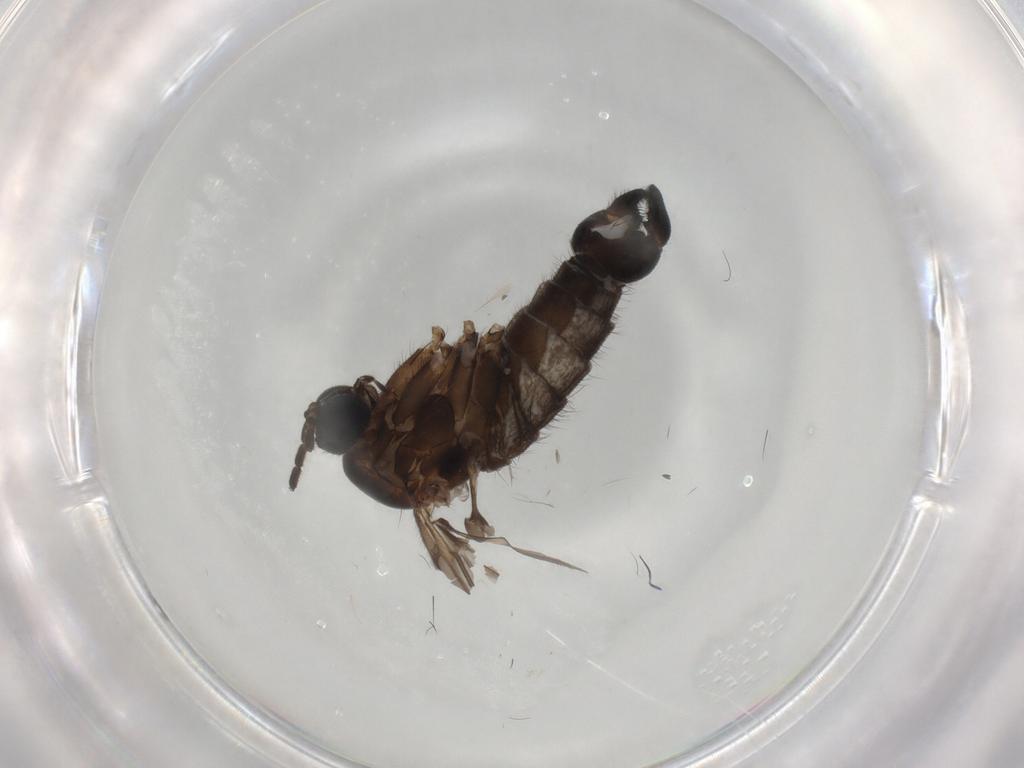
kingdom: Animalia
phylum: Arthropoda
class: Insecta
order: Diptera
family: Sciaridae
